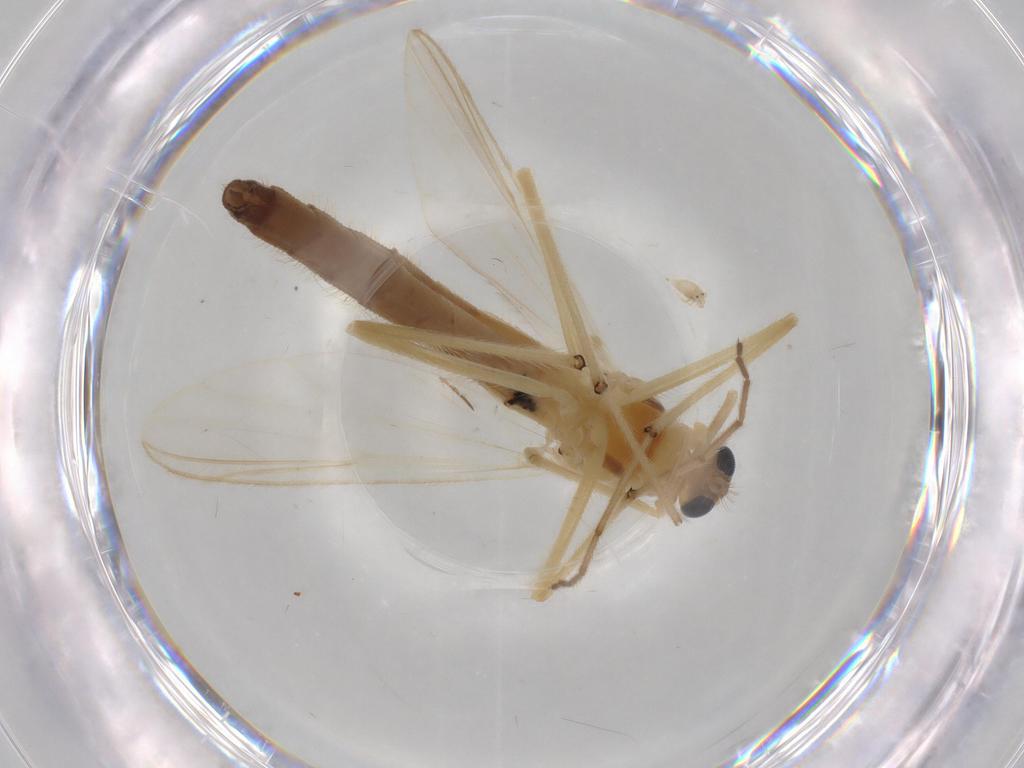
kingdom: Animalia
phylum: Arthropoda
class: Insecta
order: Diptera
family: Chironomidae
